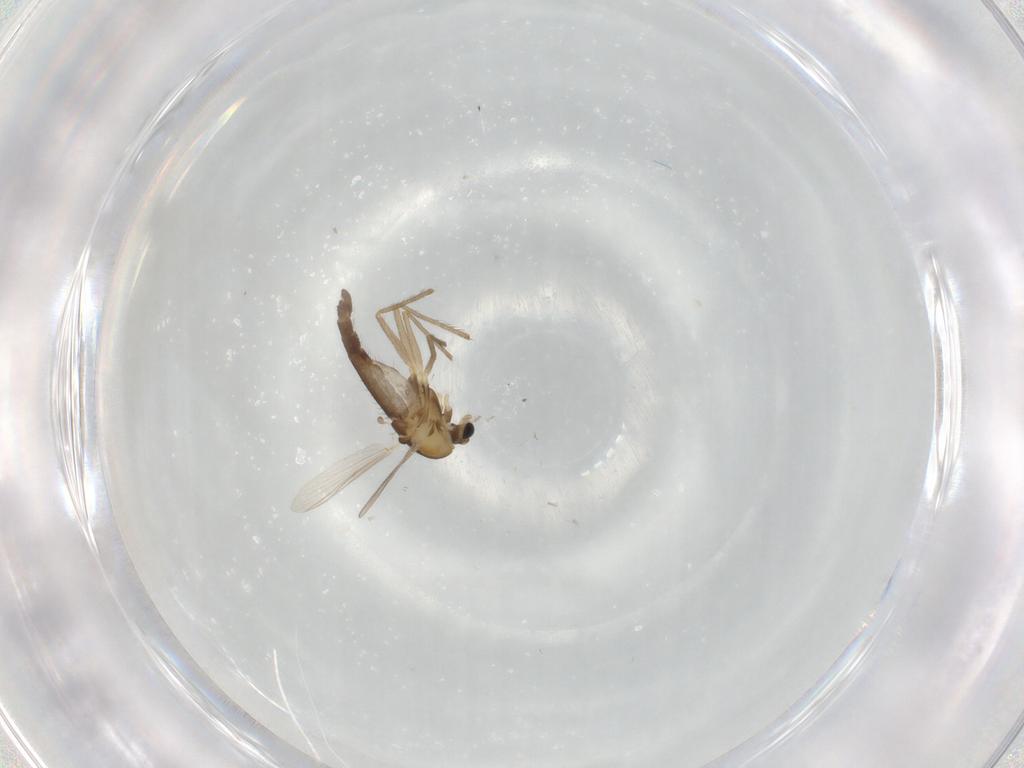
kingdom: Animalia
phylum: Arthropoda
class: Insecta
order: Diptera
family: Chironomidae
